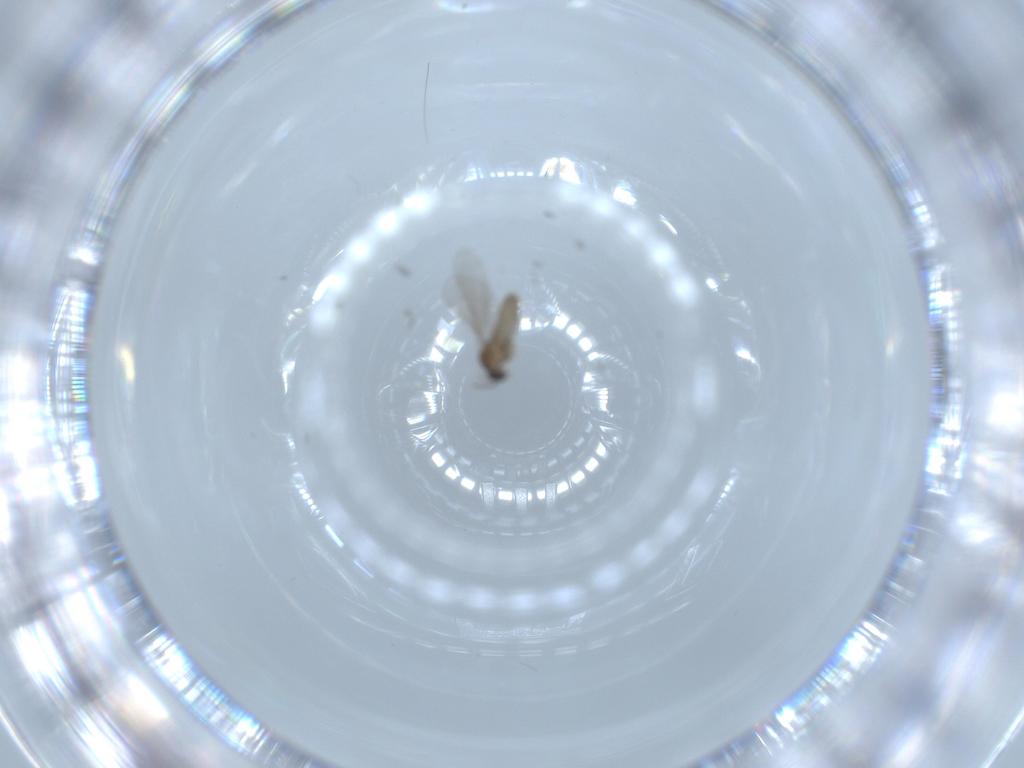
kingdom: Animalia
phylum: Arthropoda
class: Insecta
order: Diptera
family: Cecidomyiidae
